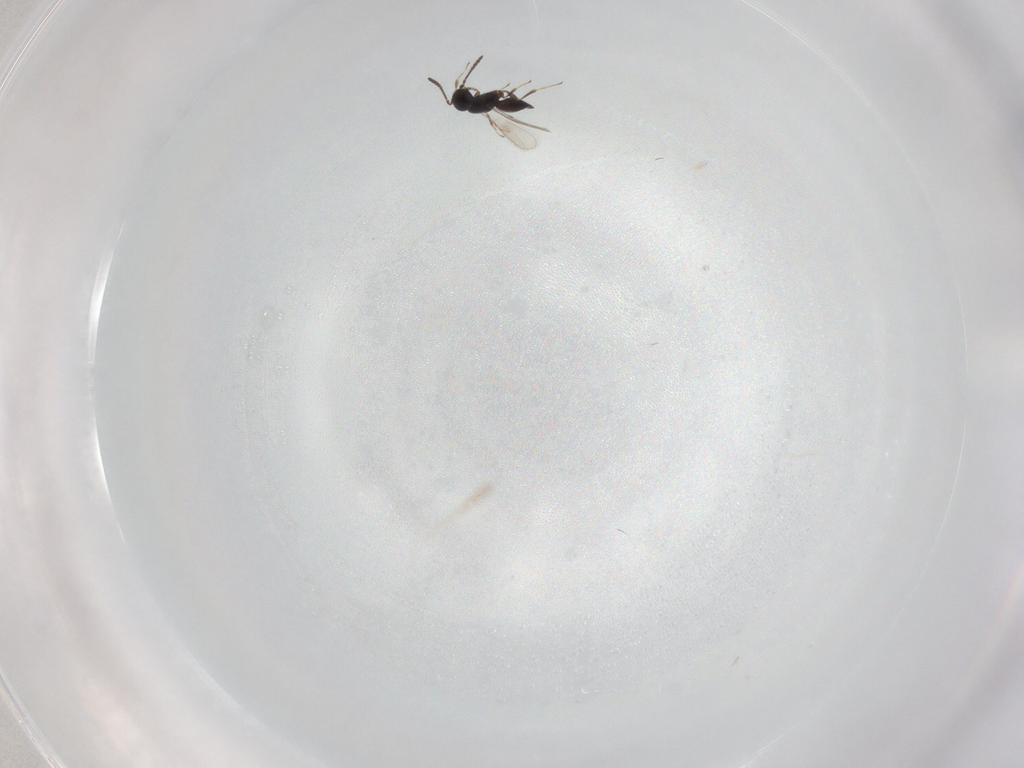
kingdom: Animalia
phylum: Arthropoda
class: Insecta
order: Hymenoptera
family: Scelionidae
